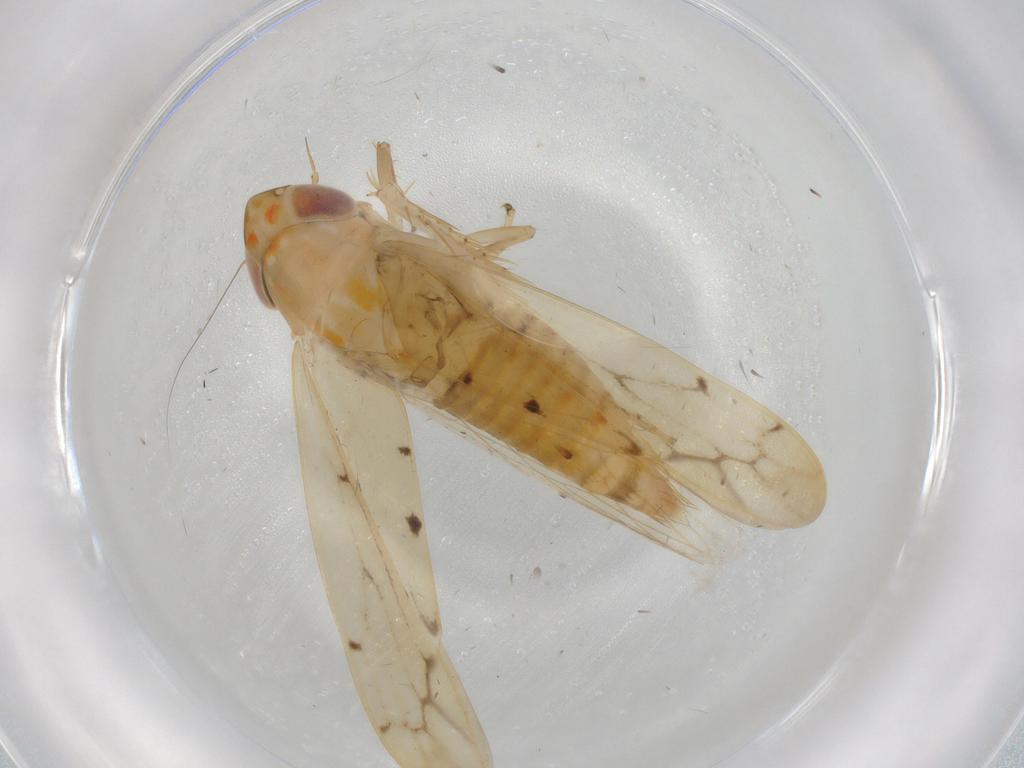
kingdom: Animalia
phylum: Arthropoda
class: Insecta
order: Hemiptera
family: Cicadellidae
